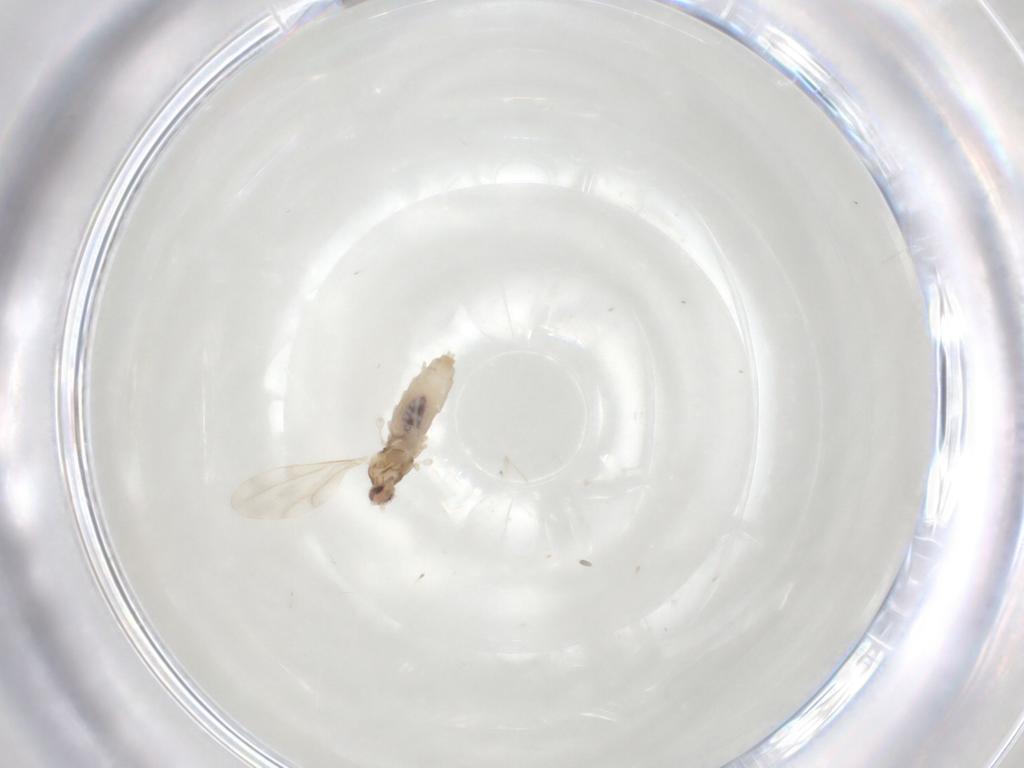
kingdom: Animalia
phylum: Arthropoda
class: Insecta
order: Diptera
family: Cecidomyiidae
